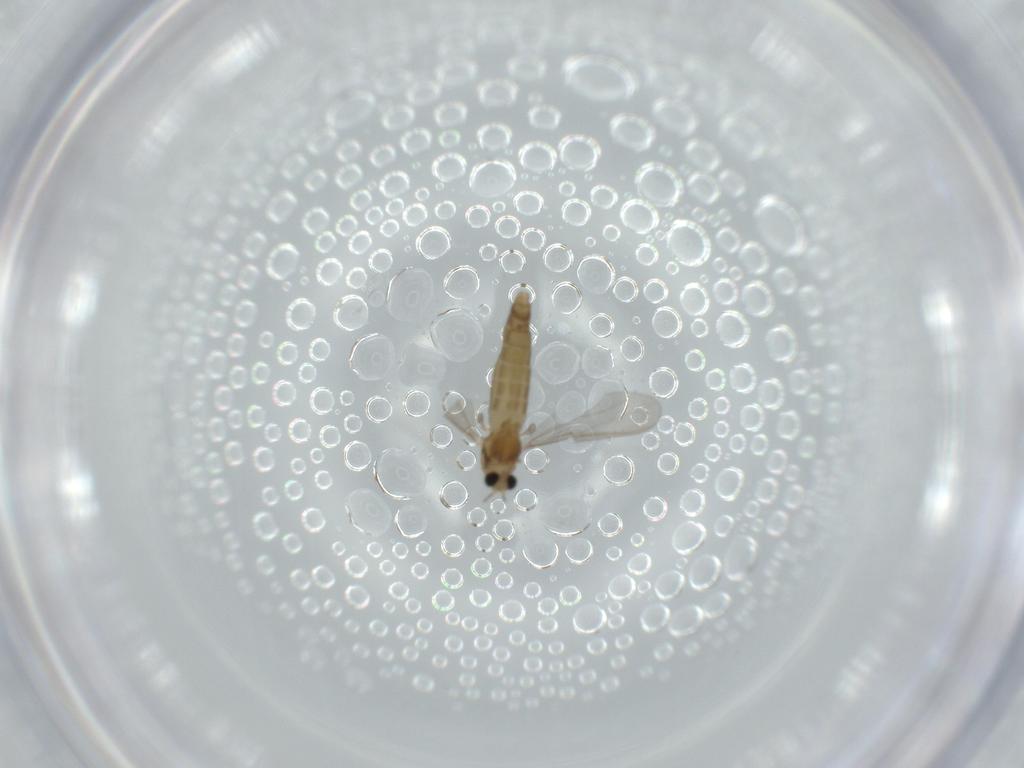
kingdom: Animalia
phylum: Arthropoda
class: Insecta
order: Diptera
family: Chironomidae
